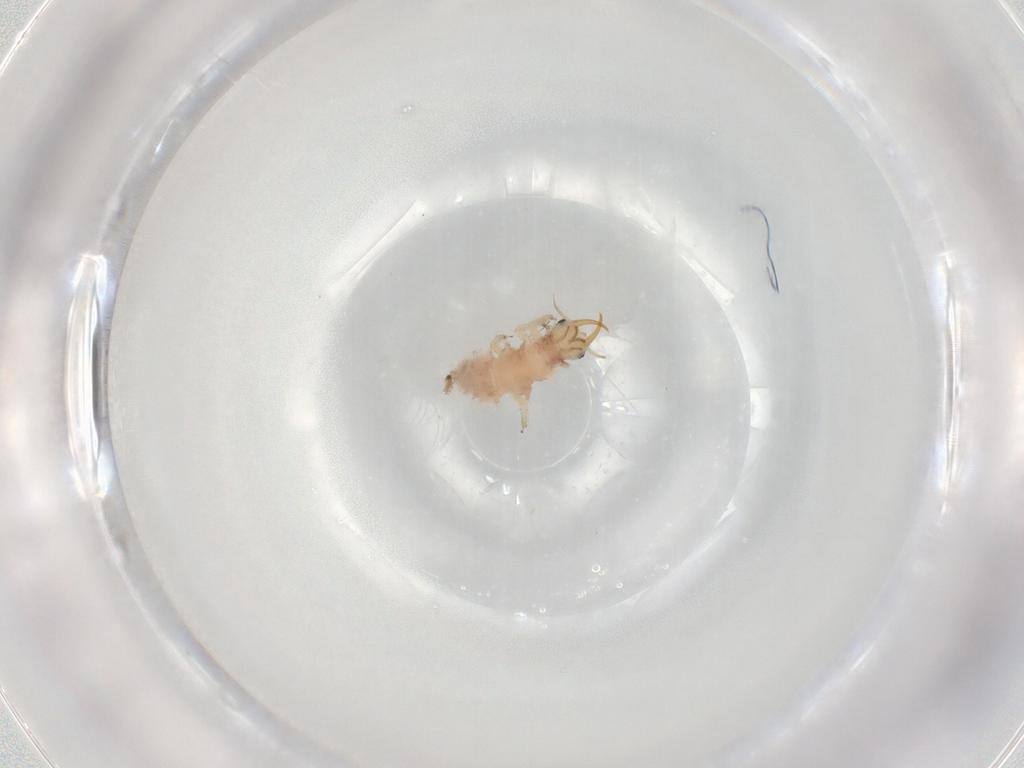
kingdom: Animalia
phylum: Arthropoda
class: Insecta
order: Neuroptera
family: Chrysopidae
